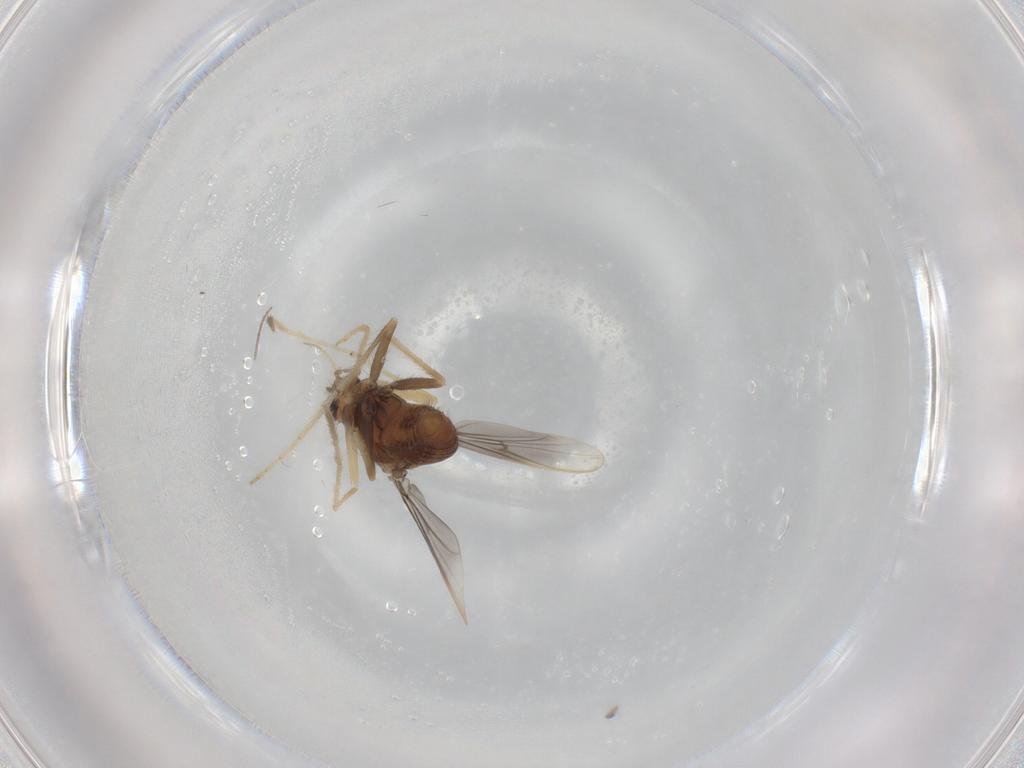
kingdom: Animalia
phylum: Arthropoda
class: Insecta
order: Diptera
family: Chironomidae
